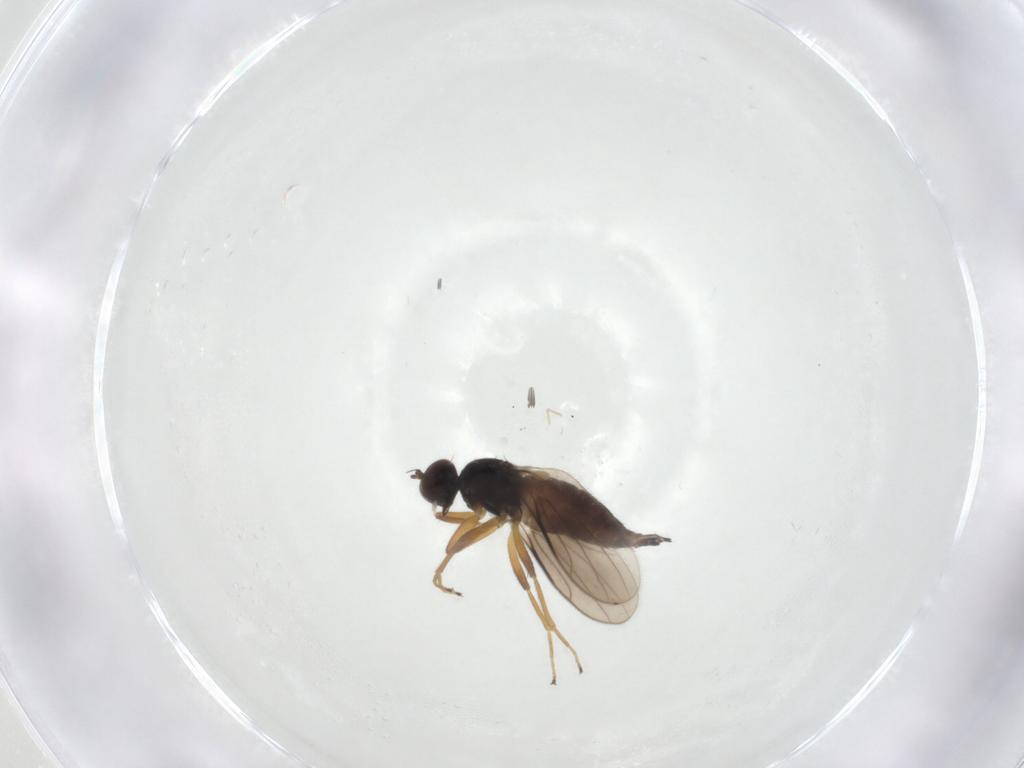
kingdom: Animalia
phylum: Arthropoda
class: Insecta
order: Diptera
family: Hybotidae
